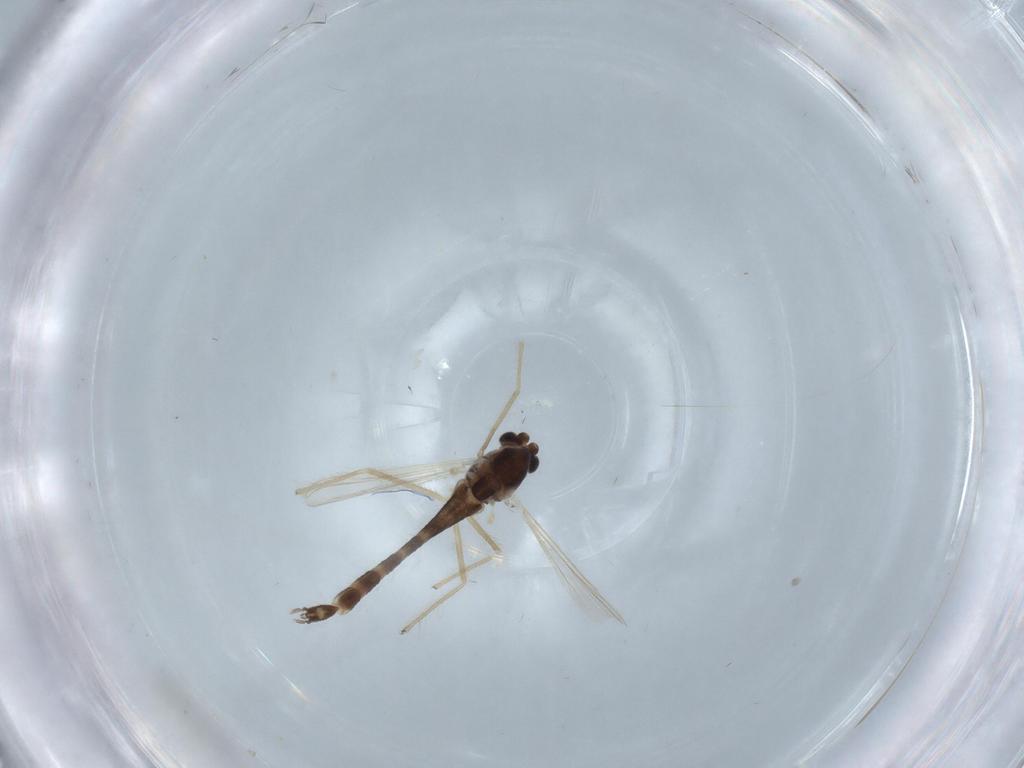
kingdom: Animalia
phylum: Arthropoda
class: Insecta
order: Diptera
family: Chironomidae
